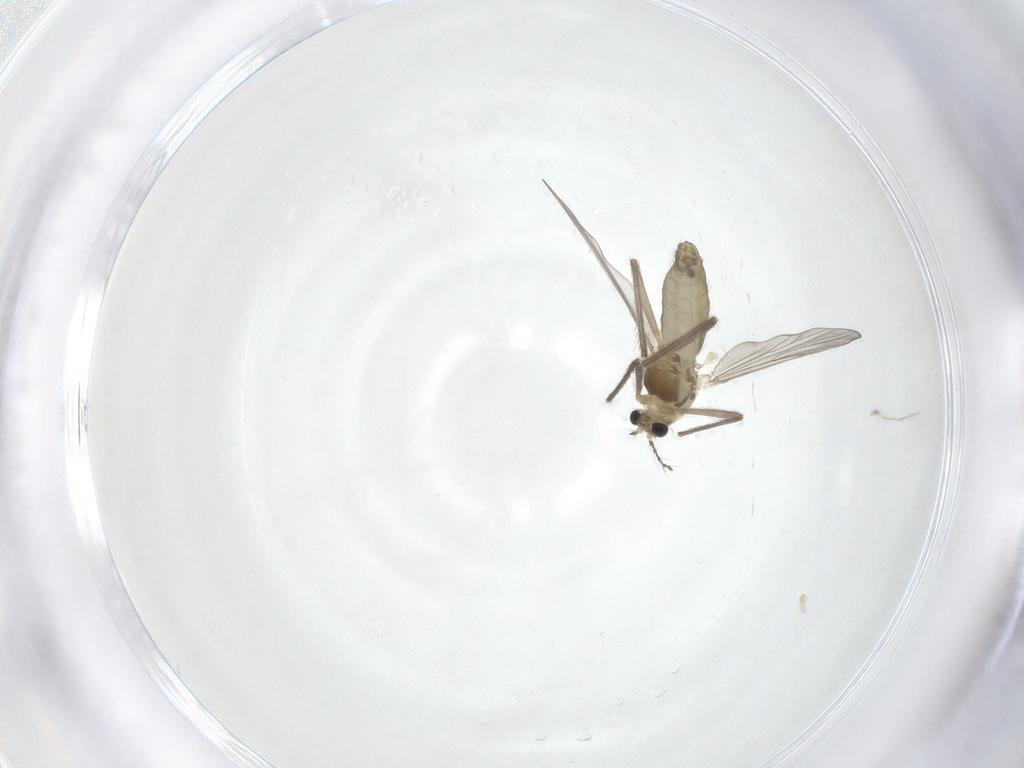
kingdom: Animalia
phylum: Arthropoda
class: Insecta
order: Diptera
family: Chironomidae
